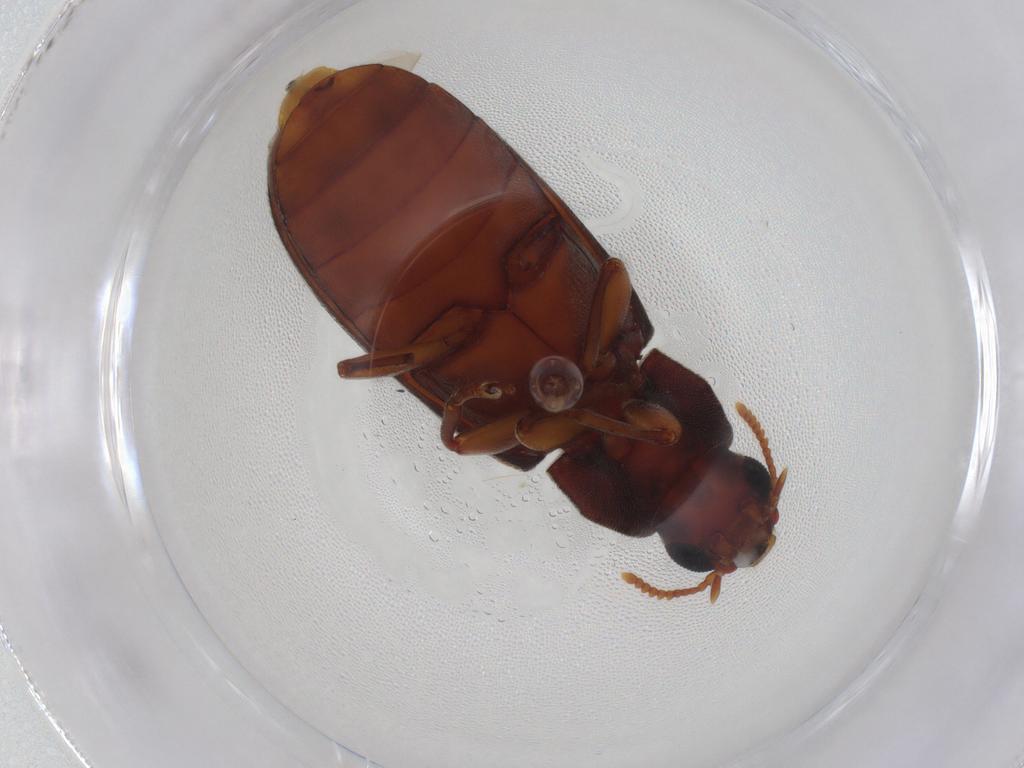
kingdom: Animalia
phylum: Arthropoda
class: Insecta
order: Coleoptera
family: Mycteridae
